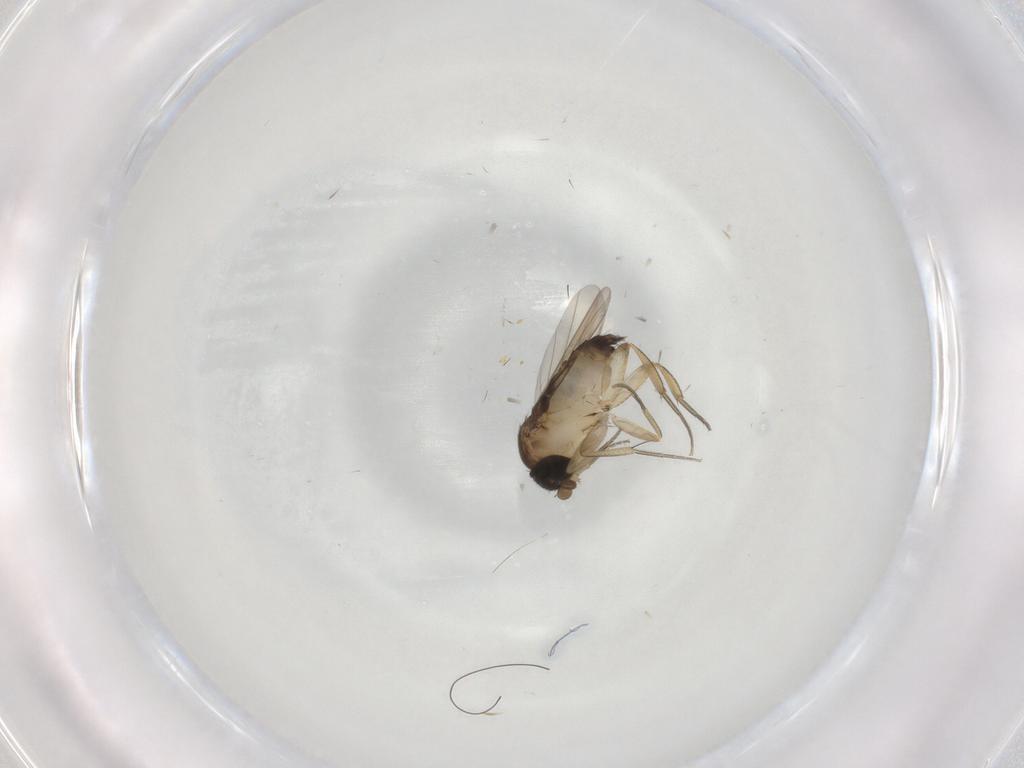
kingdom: Animalia
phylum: Arthropoda
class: Insecta
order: Diptera
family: Phoridae
